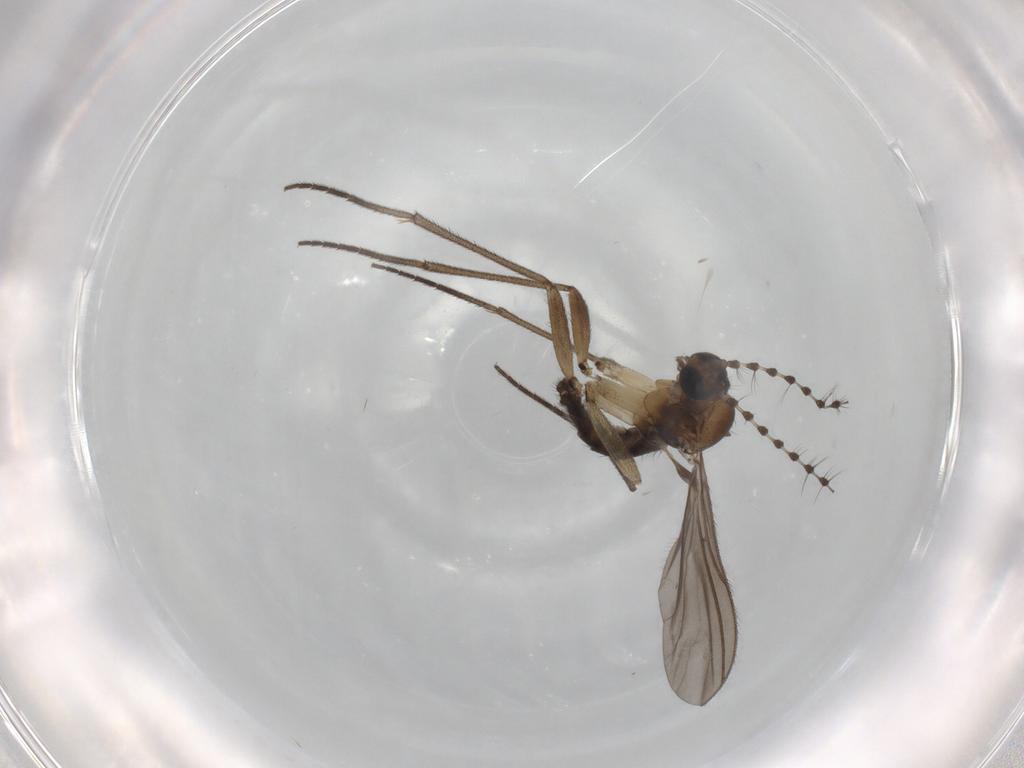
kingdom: Animalia
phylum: Arthropoda
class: Insecta
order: Diptera
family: Sciaridae
